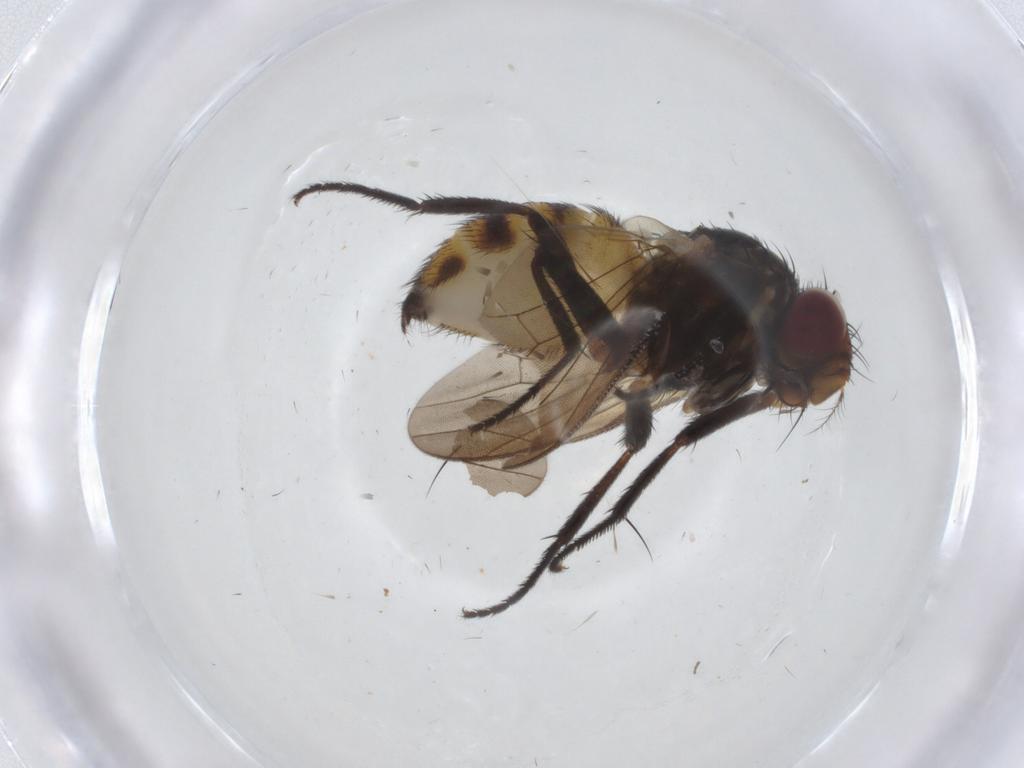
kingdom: Animalia
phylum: Arthropoda
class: Insecta
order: Diptera
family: Anthomyiidae
